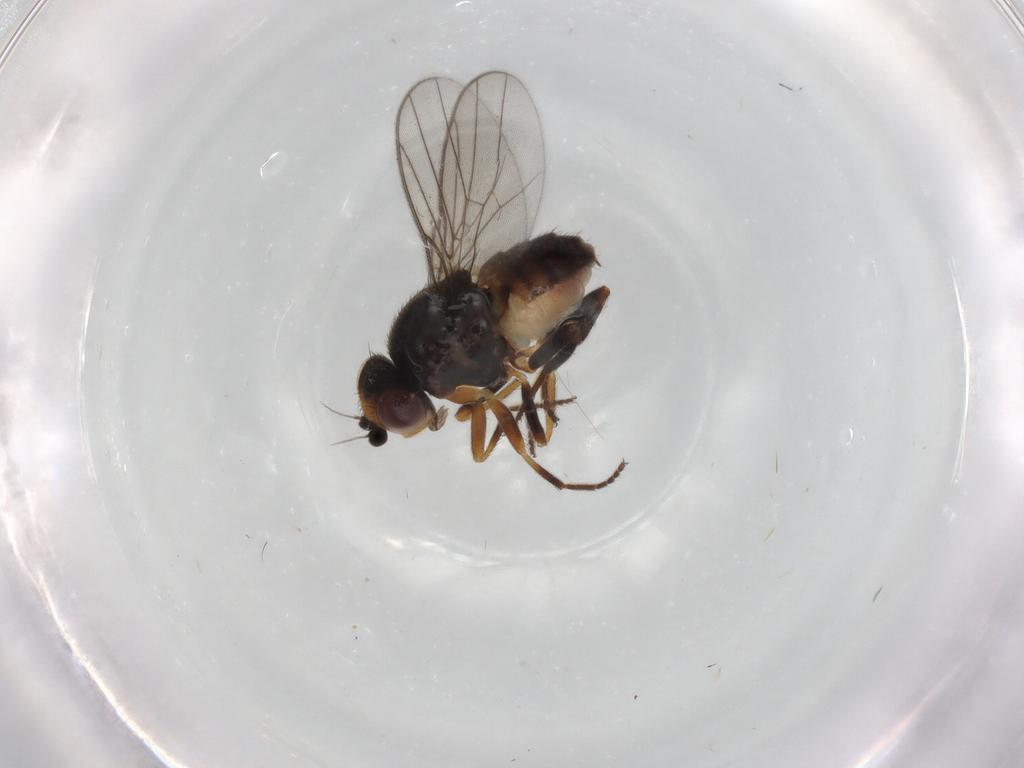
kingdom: Animalia
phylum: Arthropoda
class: Insecta
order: Diptera
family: Chloropidae
